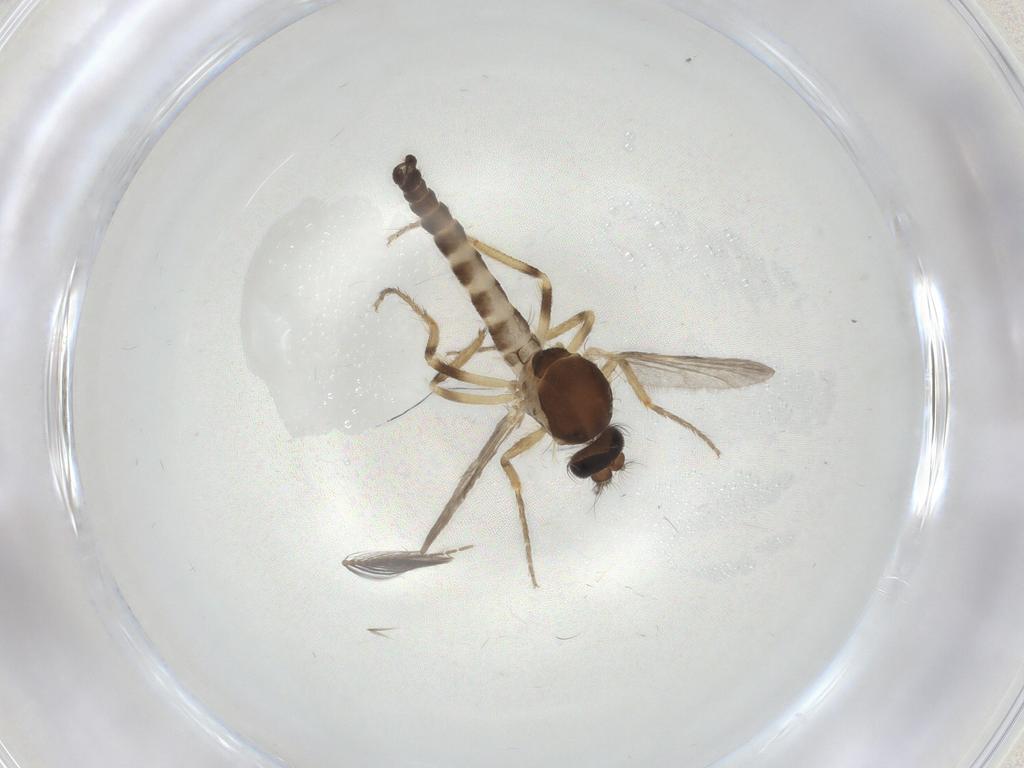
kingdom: Animalia
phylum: Arthropoda
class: Insecta
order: Diptera
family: Ceratopogonidae
